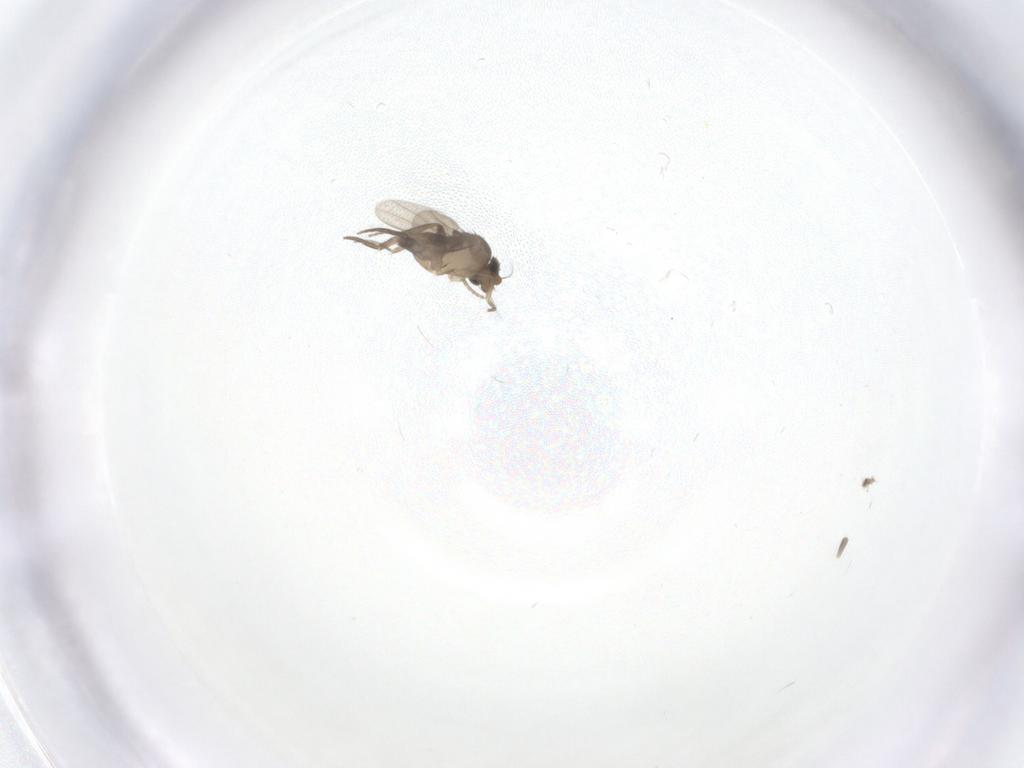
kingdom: Animalia
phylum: Arthropoda
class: Insecta
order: Diptera
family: Phoridae
